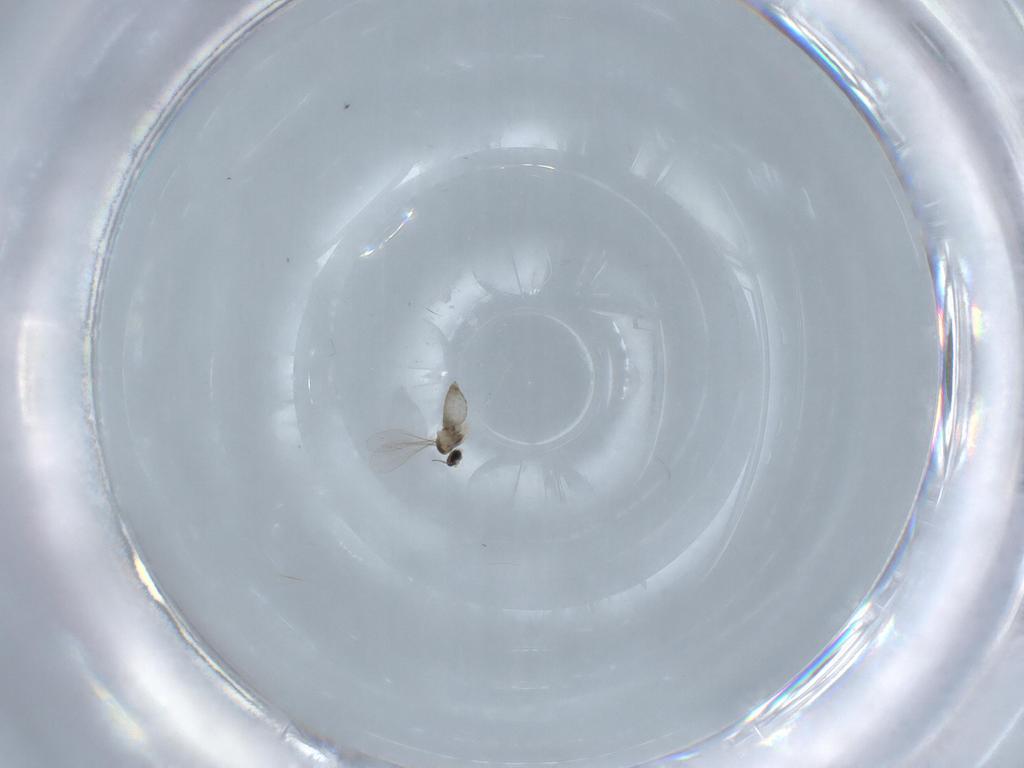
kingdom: Animalia
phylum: Arthropoda
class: Insecta
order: Diptera
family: Cecidomyiidae
